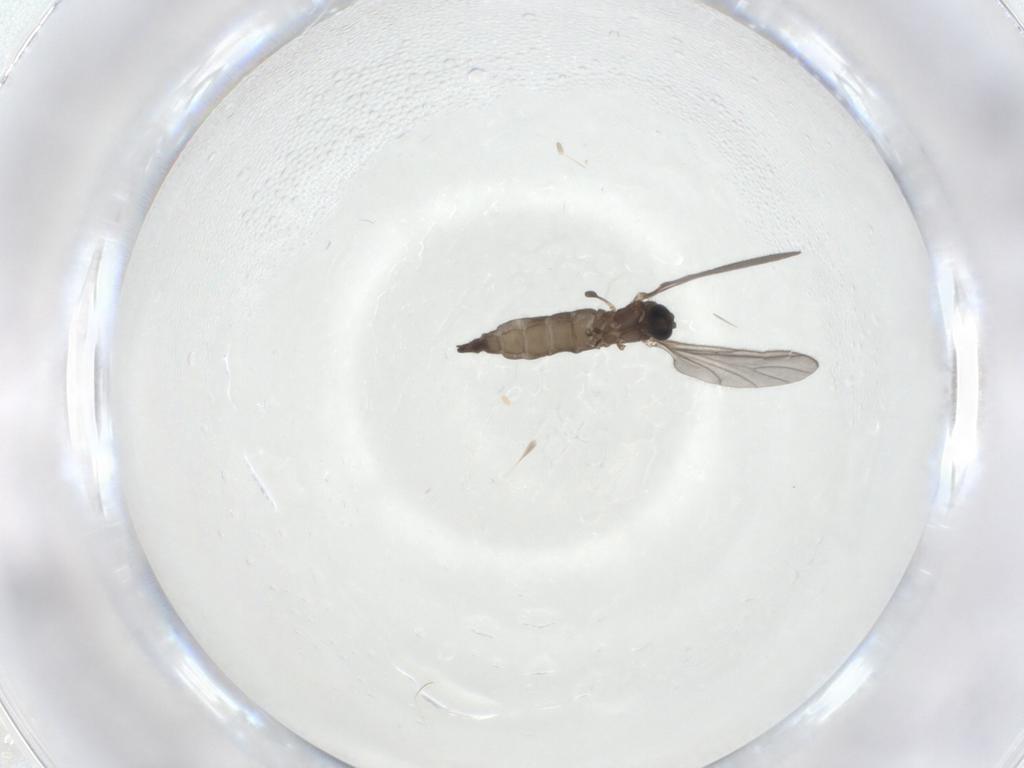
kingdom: Animalia
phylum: Arthropoda
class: Insecta
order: Diptera
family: Sciaridae
